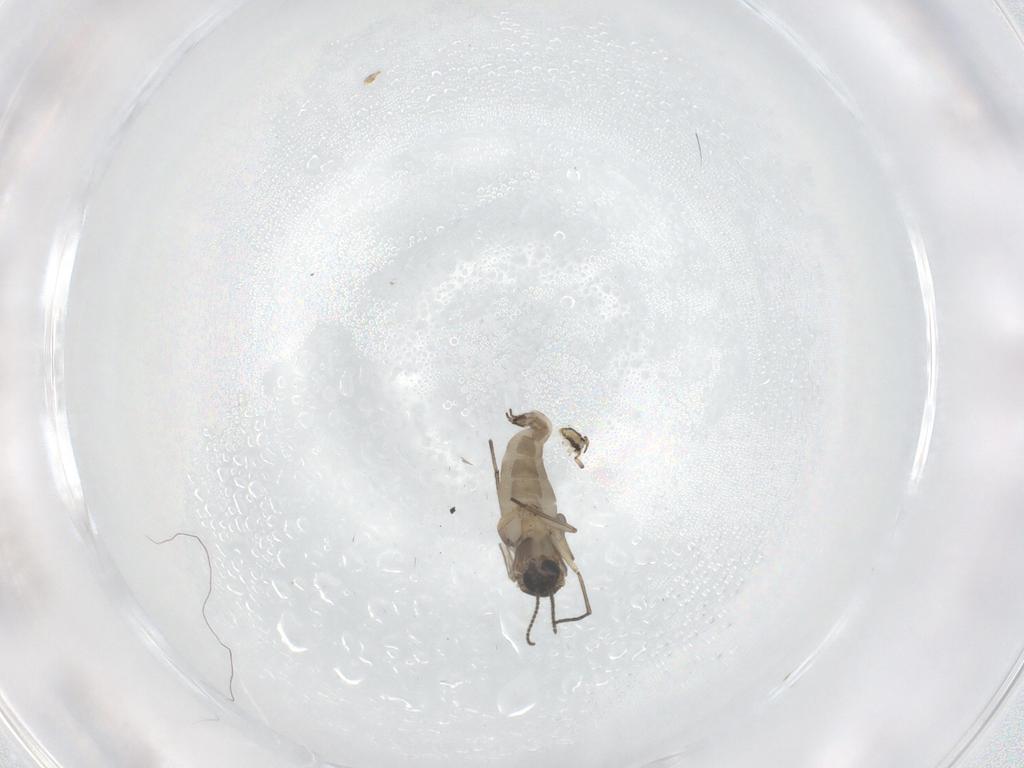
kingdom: Animalia
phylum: Arthropoda
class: Insecta
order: Diptera
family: Sciaridae
